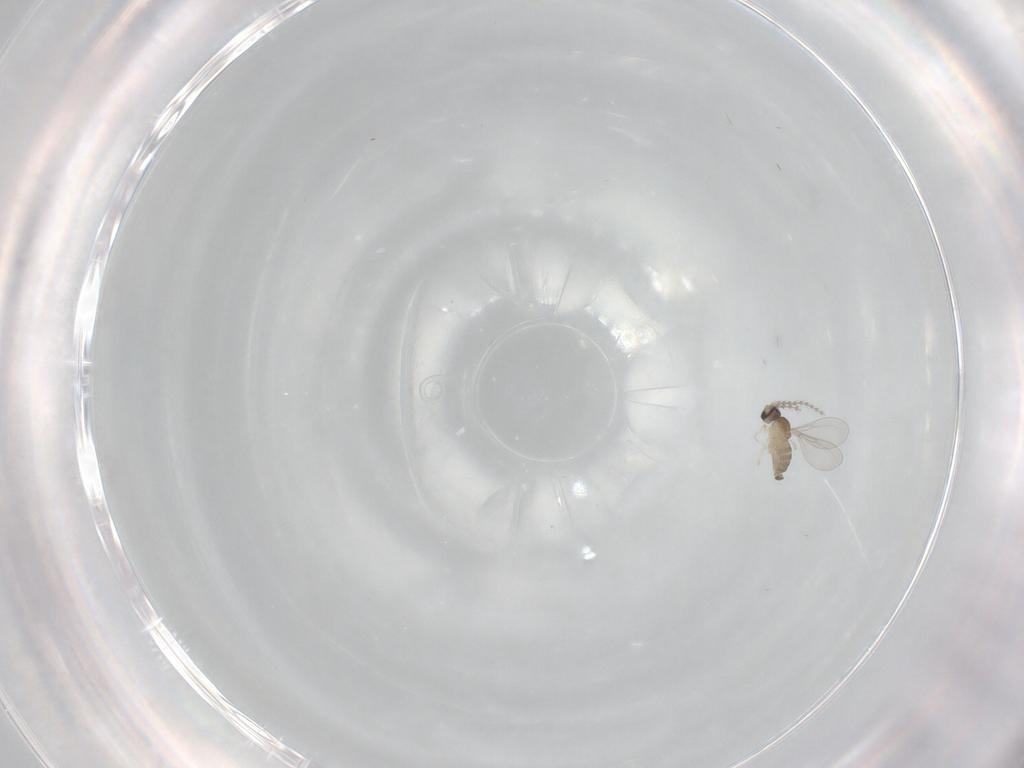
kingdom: Animalia
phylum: Arthropoda
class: Insecta
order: Diptera
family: Cecidomyiidae
